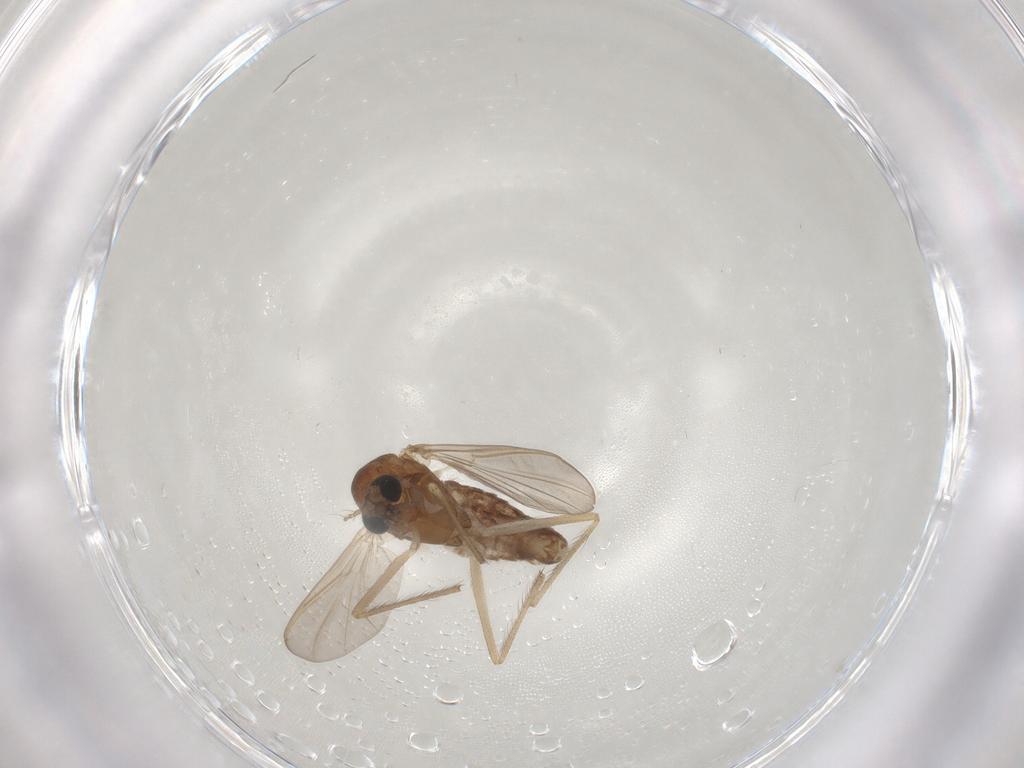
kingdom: Animalia
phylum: Arthropoda
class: Insecta
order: Diptera
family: Chironomidae
